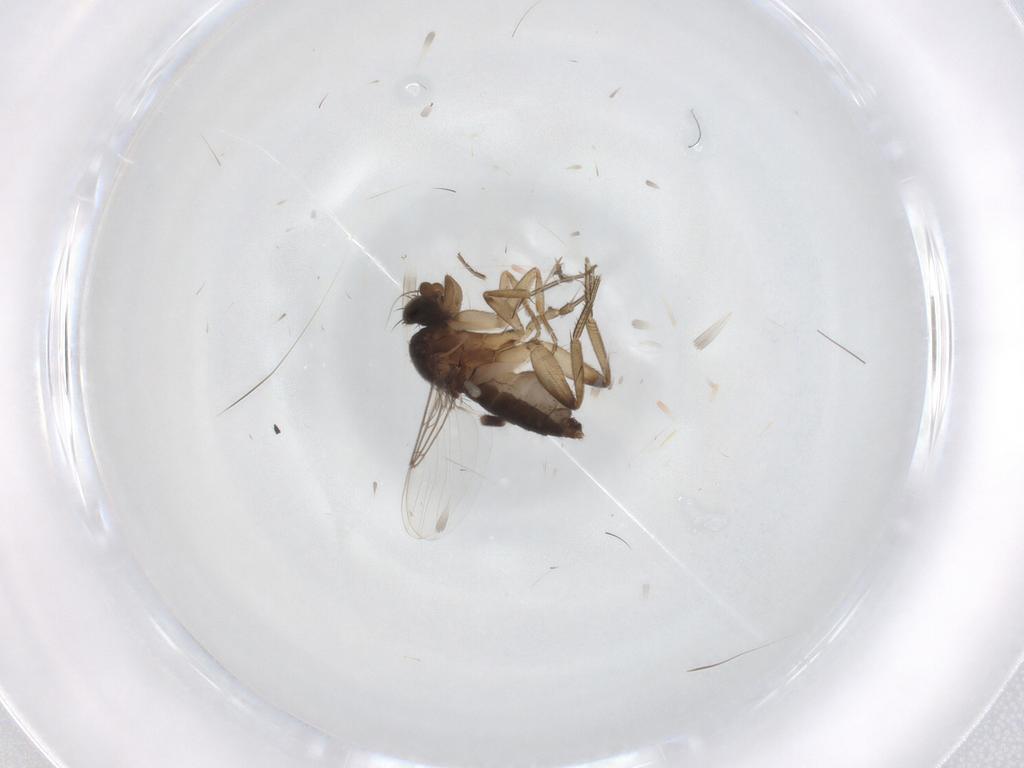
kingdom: Animalia
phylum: Arthropoda
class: Insecta
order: Diptera
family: Phoridae
